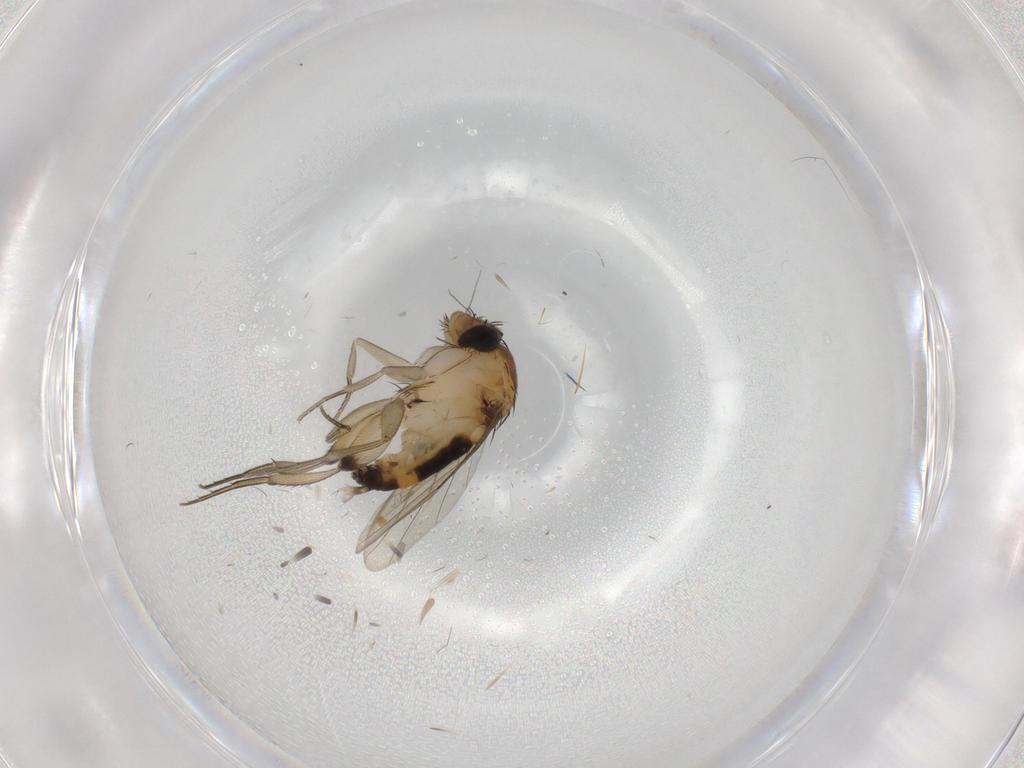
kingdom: Animalia
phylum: Arthropoda
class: Insecta
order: Diptera
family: Phoridae
